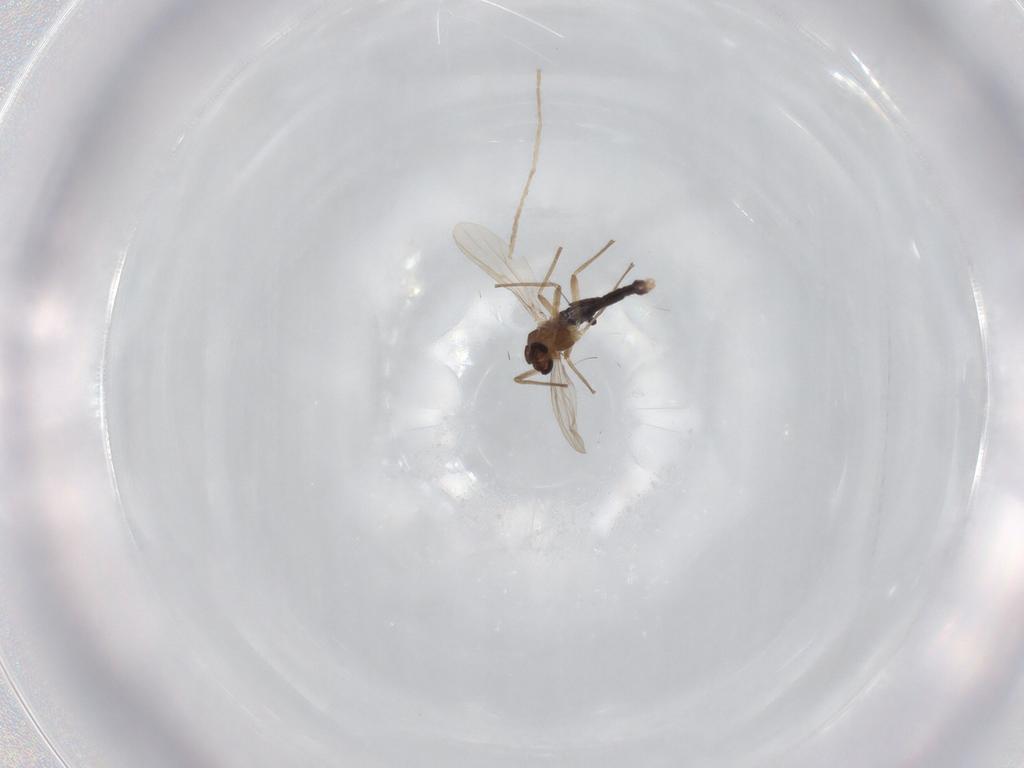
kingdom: Animalia
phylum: Arthropoda
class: Insecta
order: Diptera
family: Chironomidae
